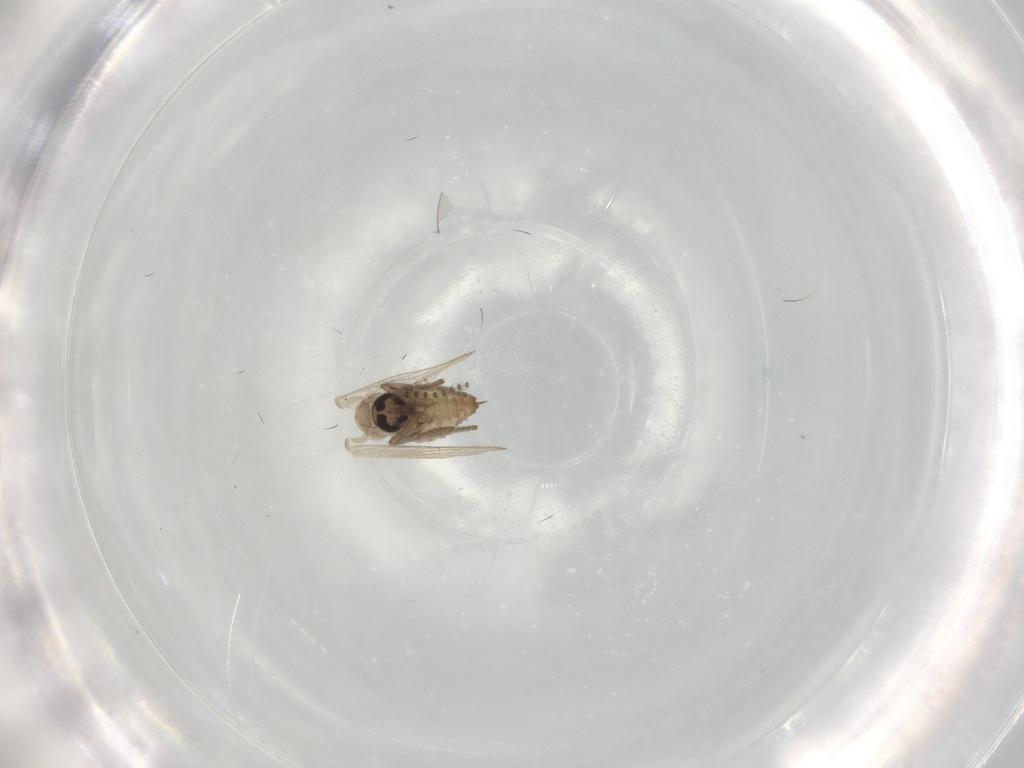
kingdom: Animalia
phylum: Arthropoda
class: Insecta
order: Diptera
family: Psychodidae
